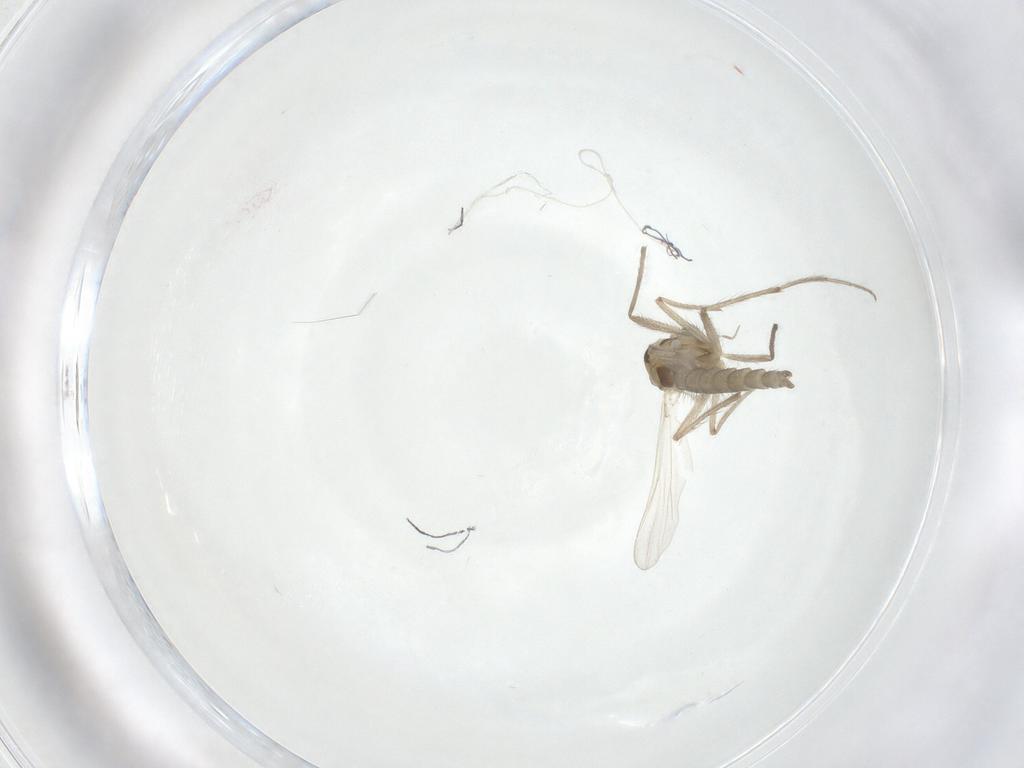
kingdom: Animalia
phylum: Arthropoda
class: Insecta
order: Diptera
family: Chironomidae
